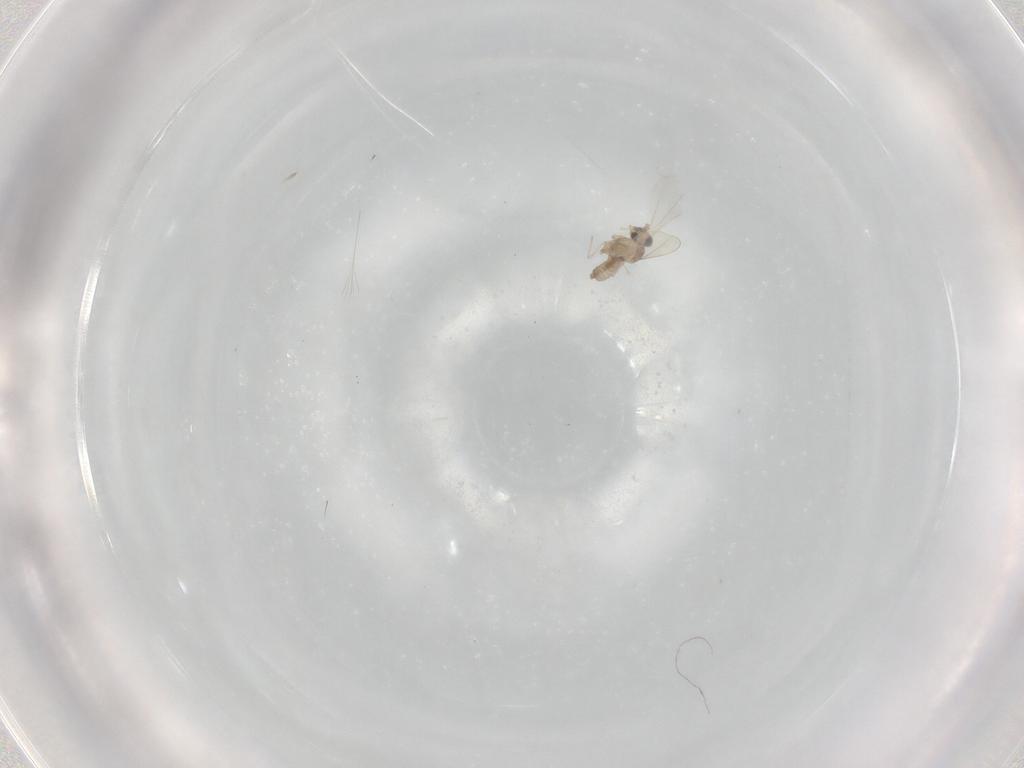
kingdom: Animalia
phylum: Arthropoda
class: Insecta
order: Diptera
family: Cecidomyiidae
